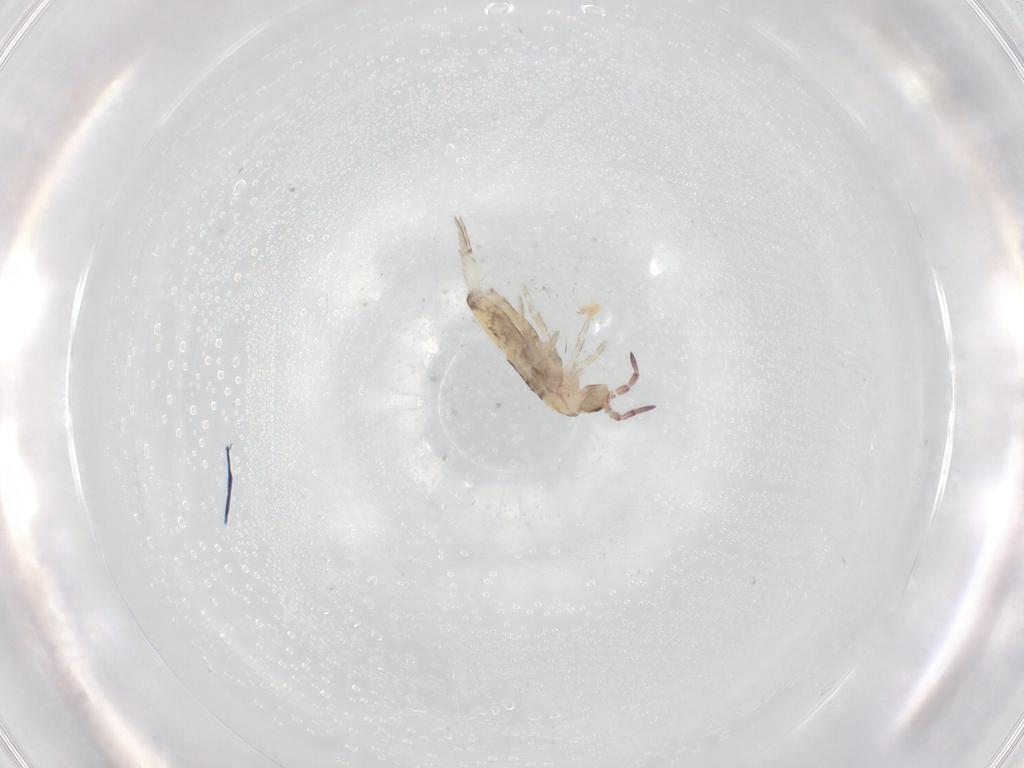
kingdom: Animalia
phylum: Arthropoda
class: Collembola
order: Entomobryomorpha
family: Entomobryidae
